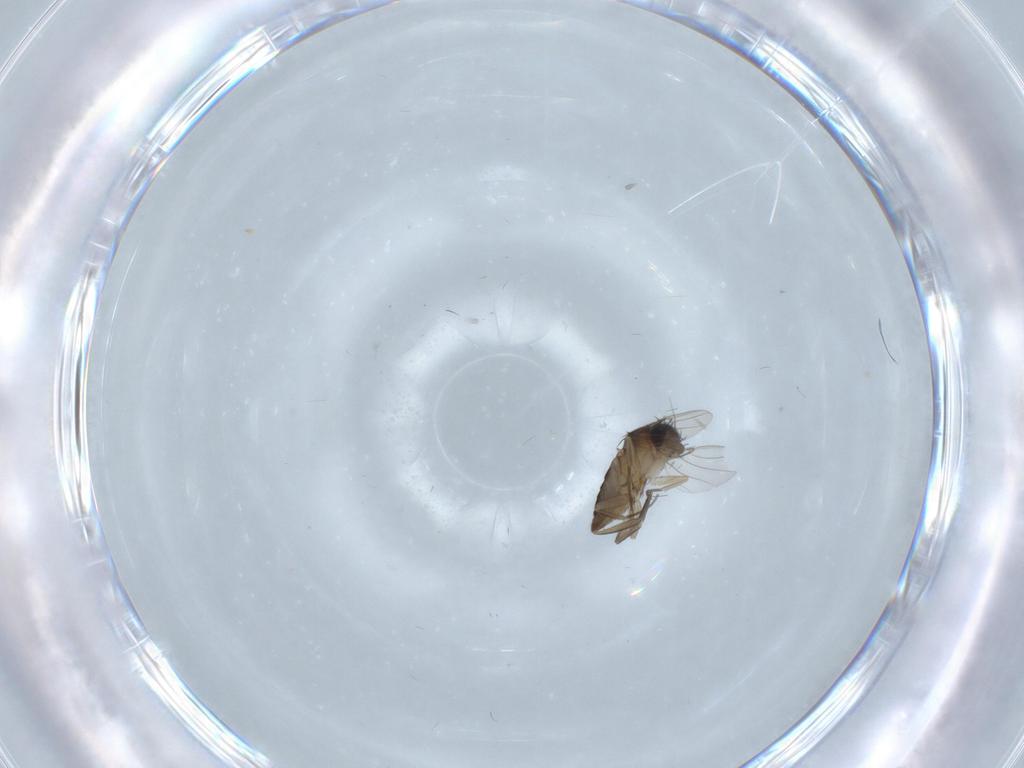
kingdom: Animalia
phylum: Arthropoda
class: Insecta
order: Diptera
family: Psychodidae
